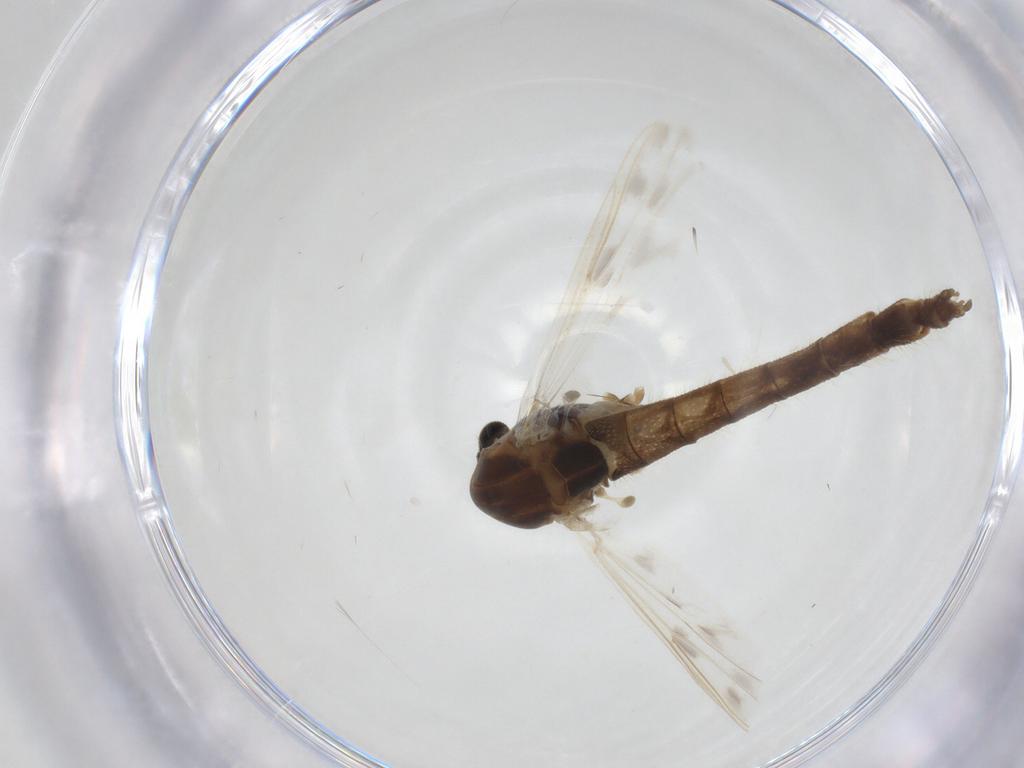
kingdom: Animalia
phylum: Arthropoda
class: Insecta
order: Diptera
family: Chironomidae
